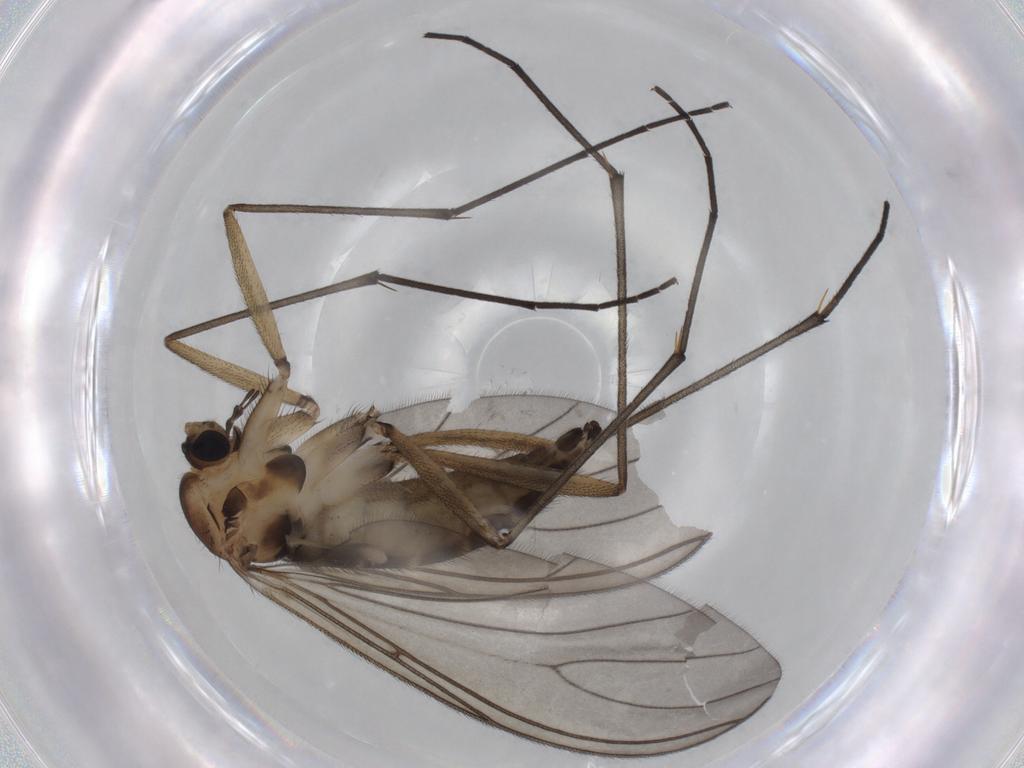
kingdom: Animalia
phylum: Arthropoda
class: Insecta
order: Diptera
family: Sciaridae
